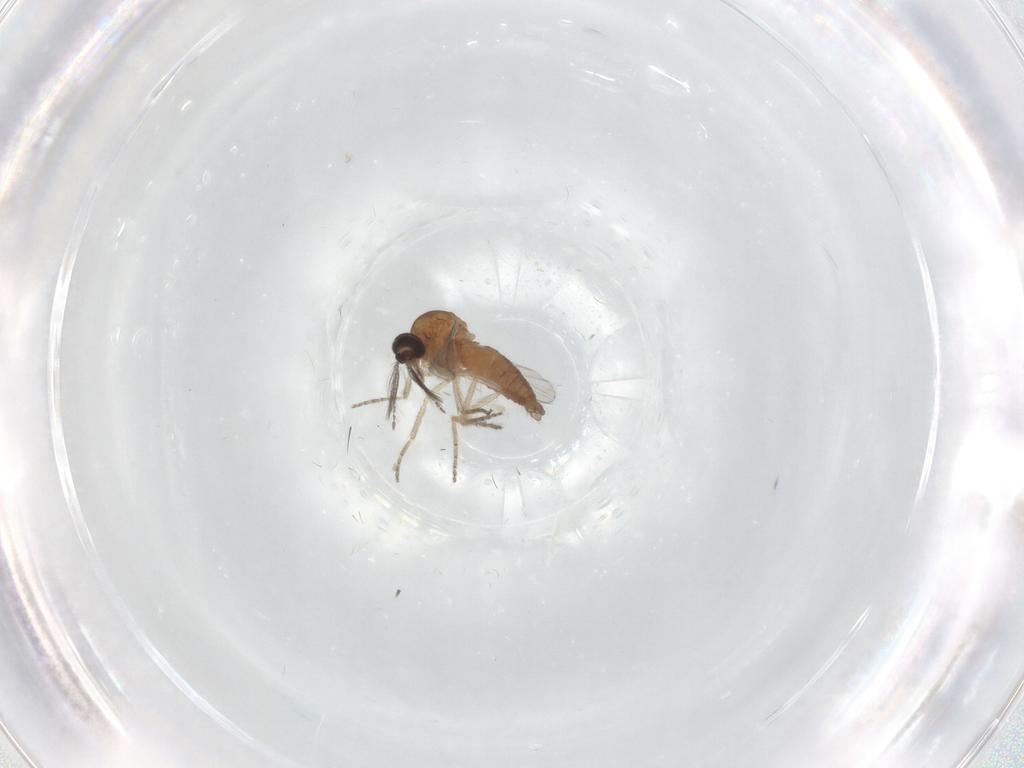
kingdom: Animalia
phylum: Arthropoda
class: Insecta
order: Diptera
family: Ceratopogonidae
